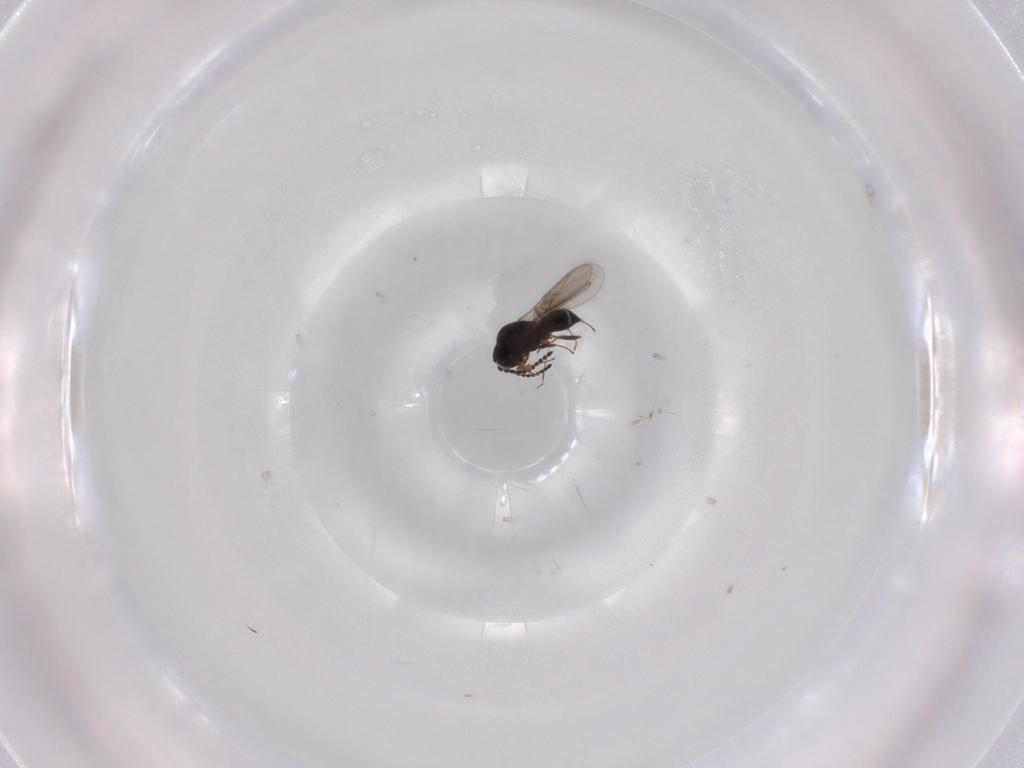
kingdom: Animalia
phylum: Arthropoda
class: Insecta
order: Hymenoptera
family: Scelionidae
